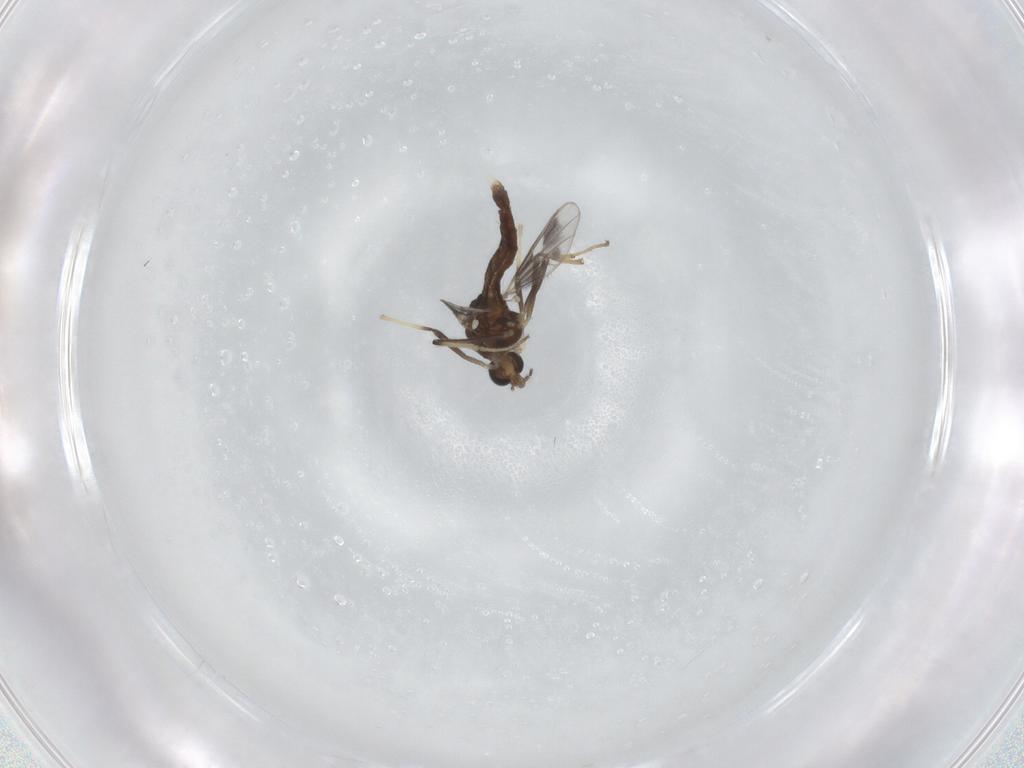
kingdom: Animalia
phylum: Arthropoda
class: Insecta
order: Diptera
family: Chironomidae
